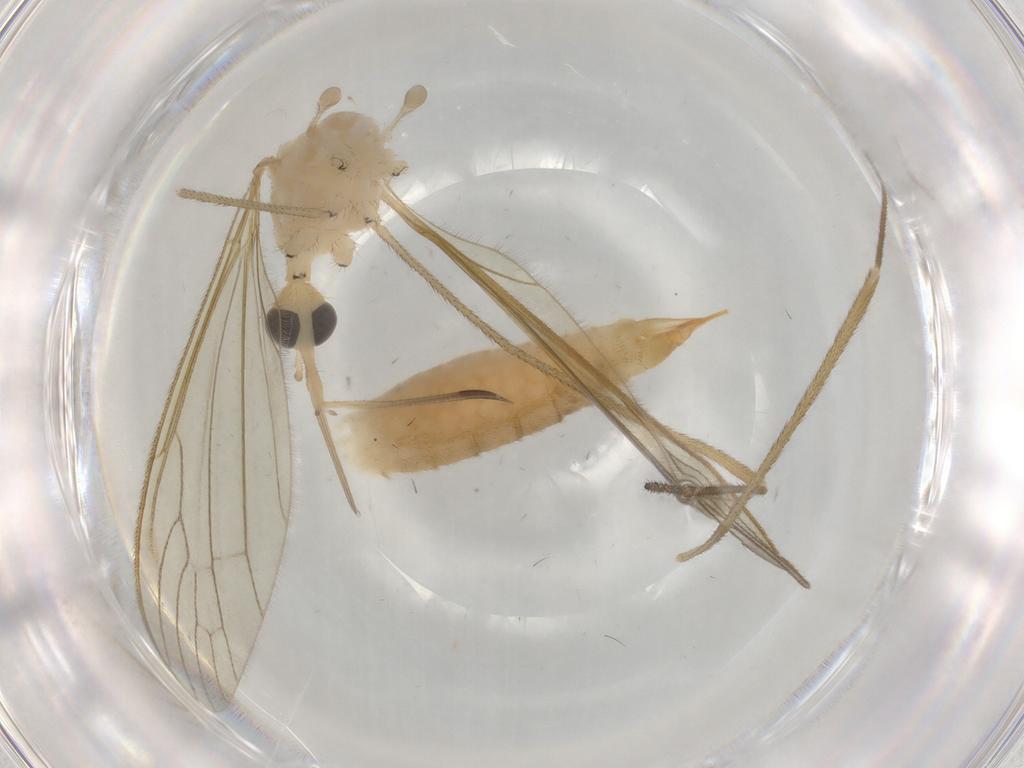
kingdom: Animalia
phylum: Arthropoda
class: Insecta
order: Diptera
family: Limoniidae
